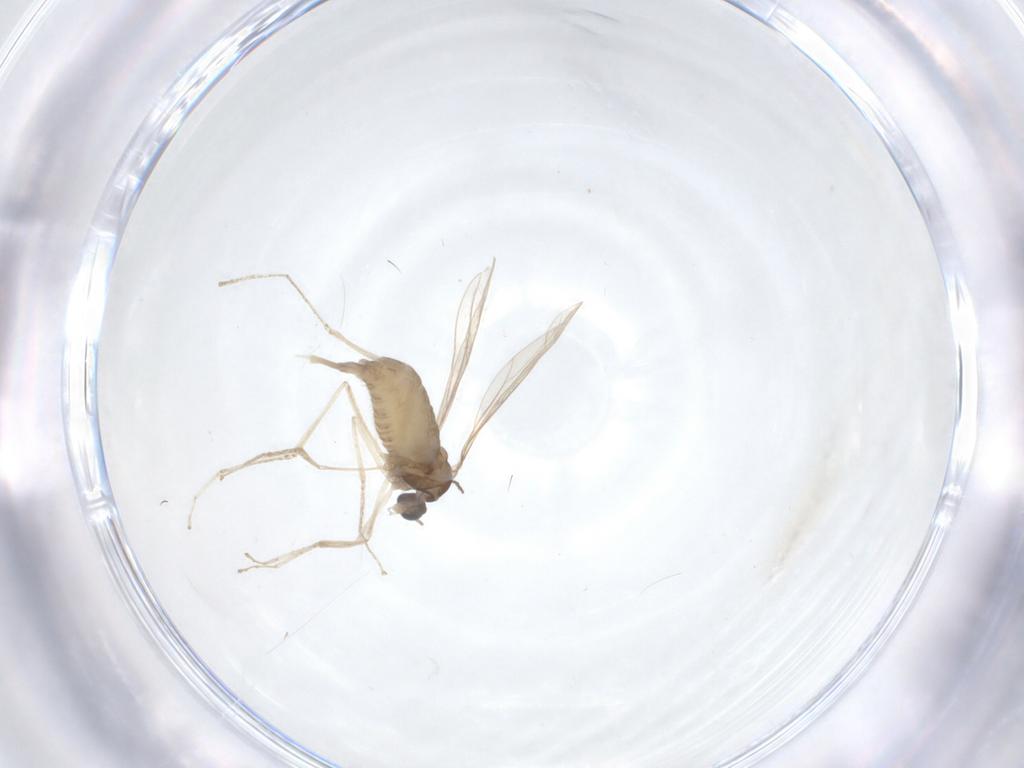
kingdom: Animalia
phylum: Arthropoda
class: Insecta
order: Diptera
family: Cecidomyiidae
